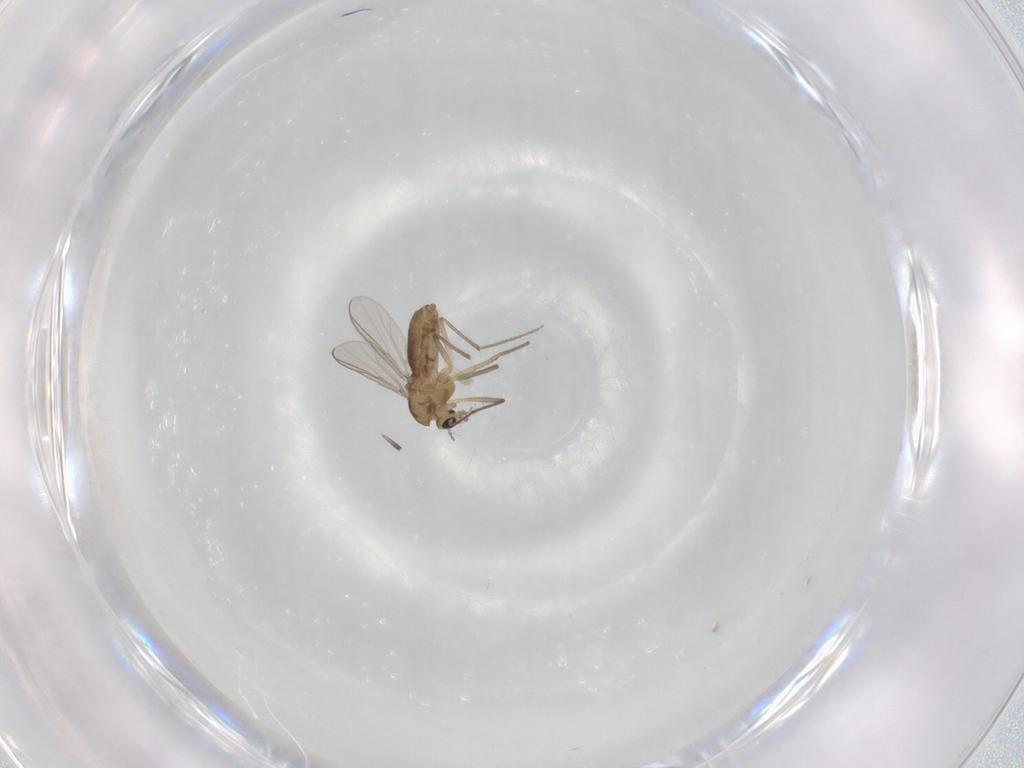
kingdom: Animalia
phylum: Arthropoda
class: Insecta
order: Diptera
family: Chironomidae
